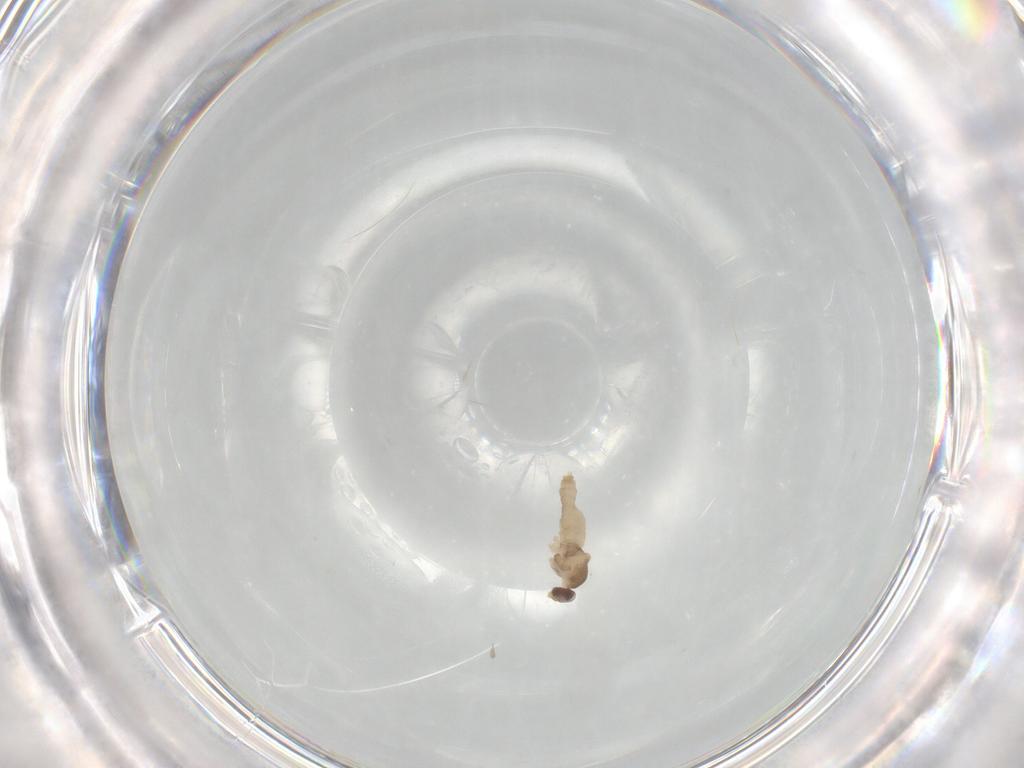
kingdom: Animalia
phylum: Arthropoda
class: Insecta
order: Diptera
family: Cecidomyiidae
